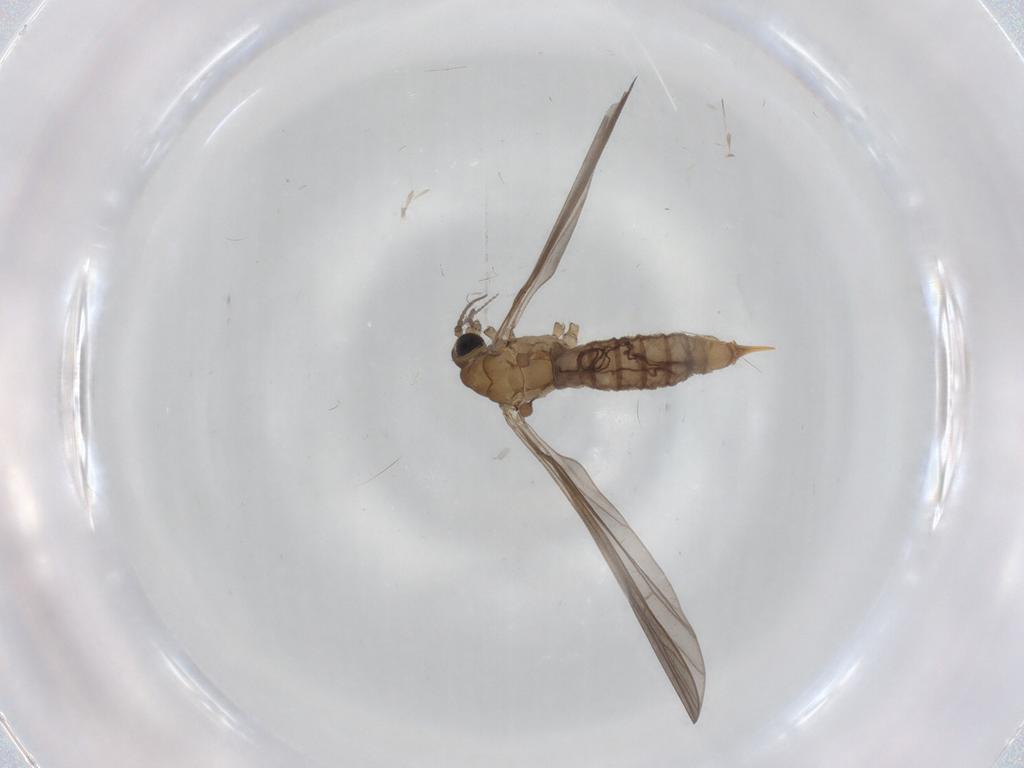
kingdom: Animalia
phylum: Arthropoda
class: Insecta
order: Diptera
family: Limoniidae
